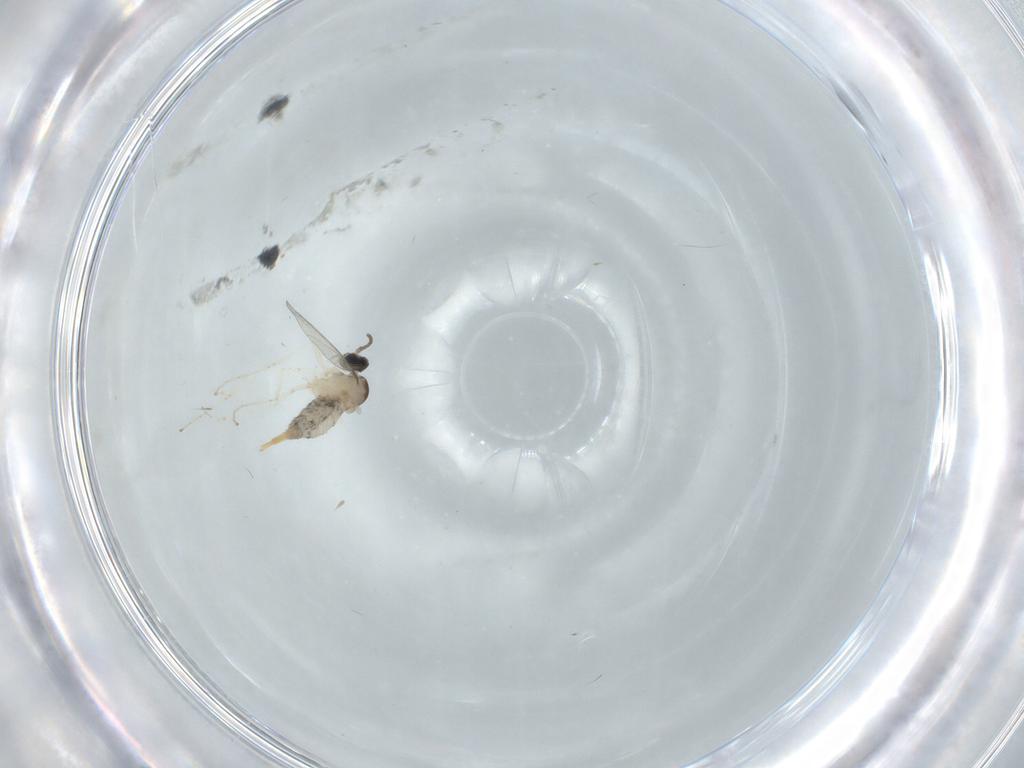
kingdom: Animalia
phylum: Arthropoda
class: Insecta
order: Diptera
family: Cecidomyiidae
